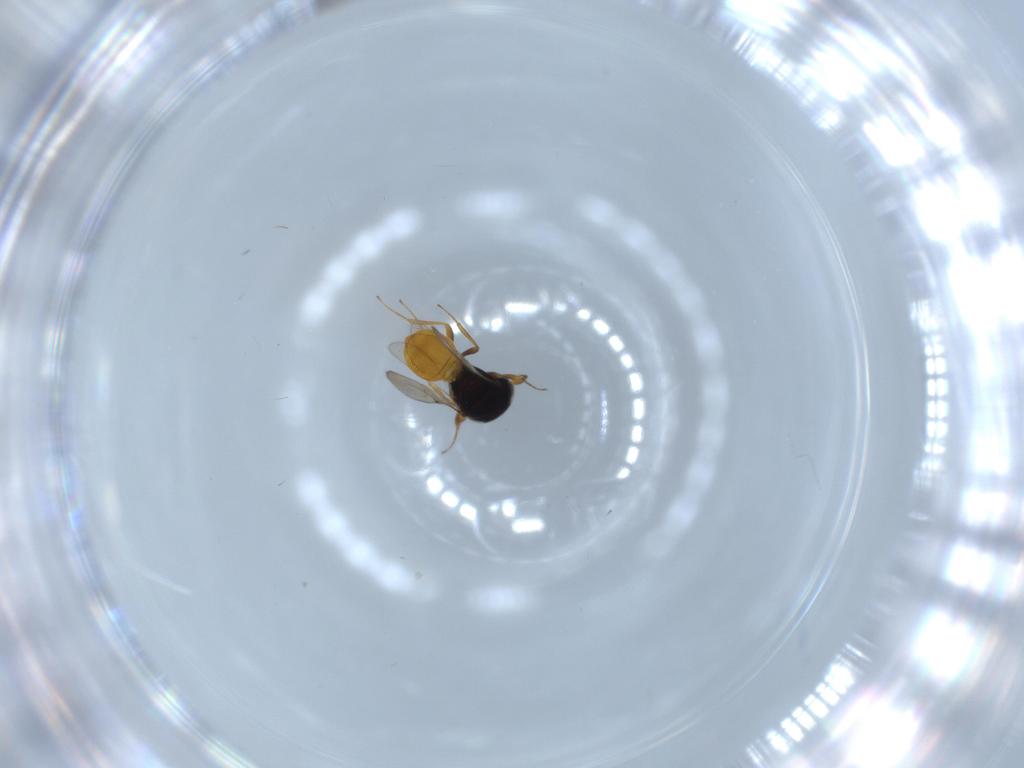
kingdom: Animalia
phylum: Arthropoda
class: Insecta
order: Hymenoptera
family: Scelionidae
